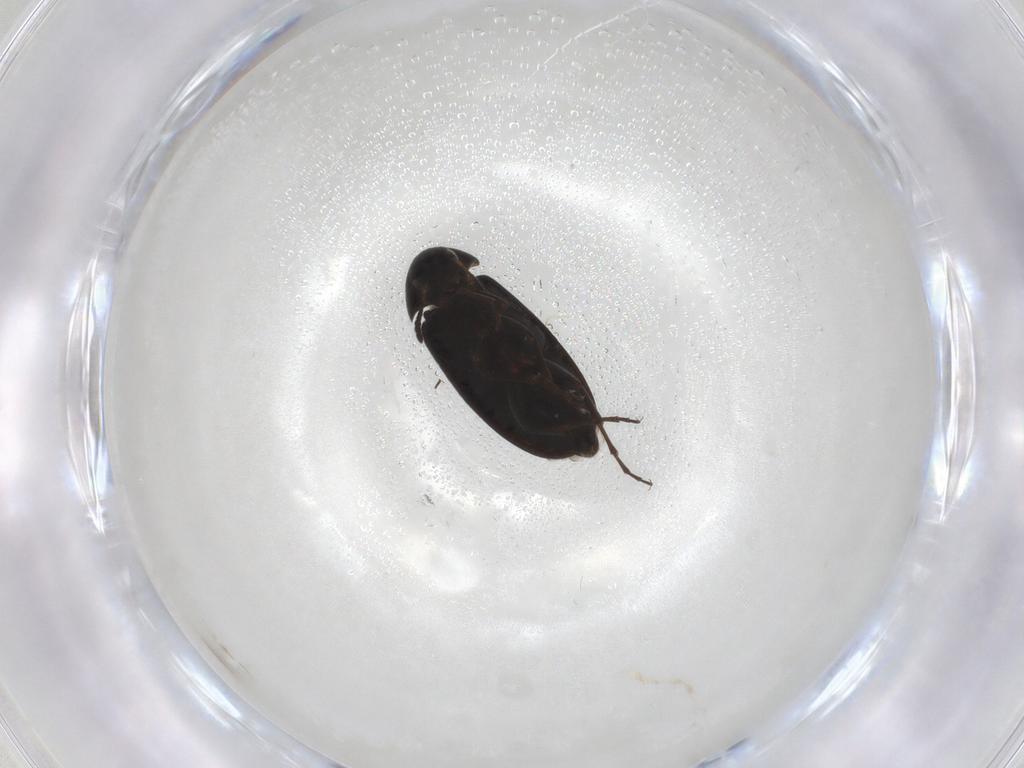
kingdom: Animalia
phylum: Arthropoda
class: Insecta
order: Coleoptera
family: Scraptiidae
